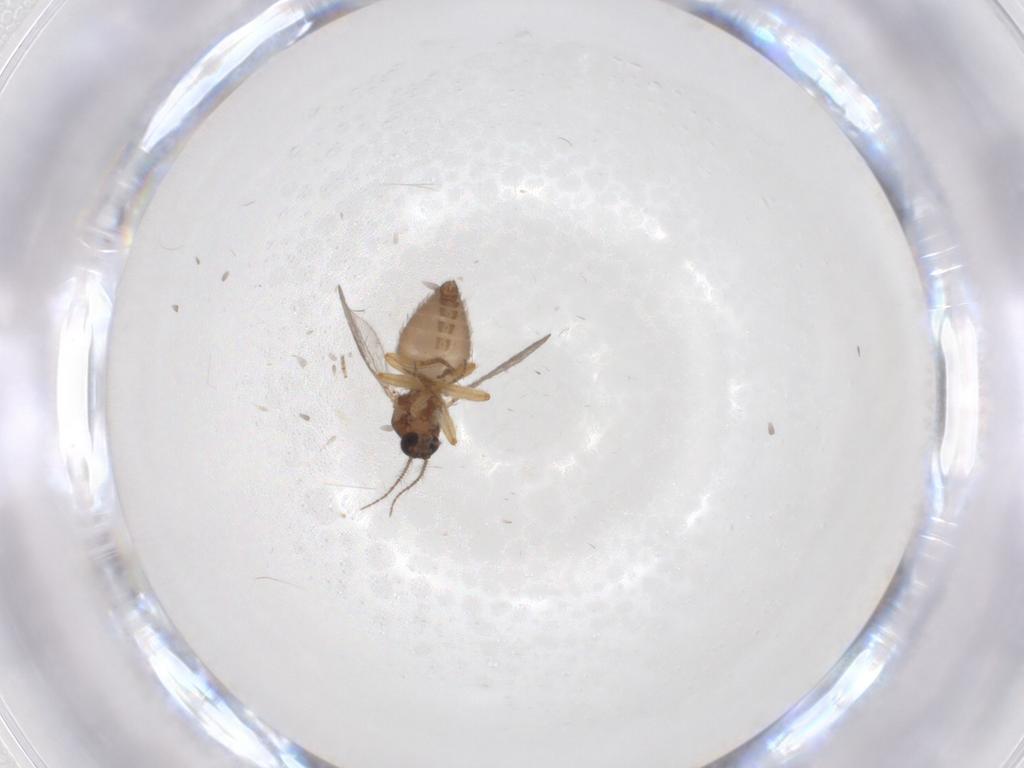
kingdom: Animalia
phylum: Arthropoda
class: Insecta
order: Diptera
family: Ceratopogonidae
